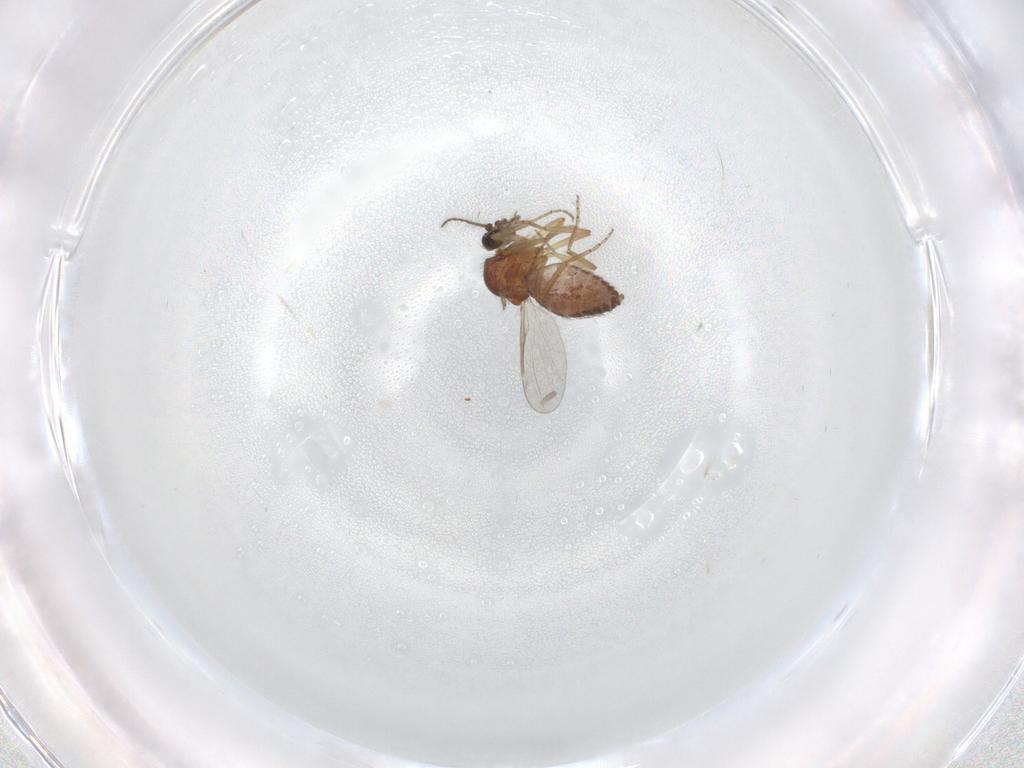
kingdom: Animalia
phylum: Arthropoda
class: Insecta
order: Diptera
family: Ceratopogonidae
